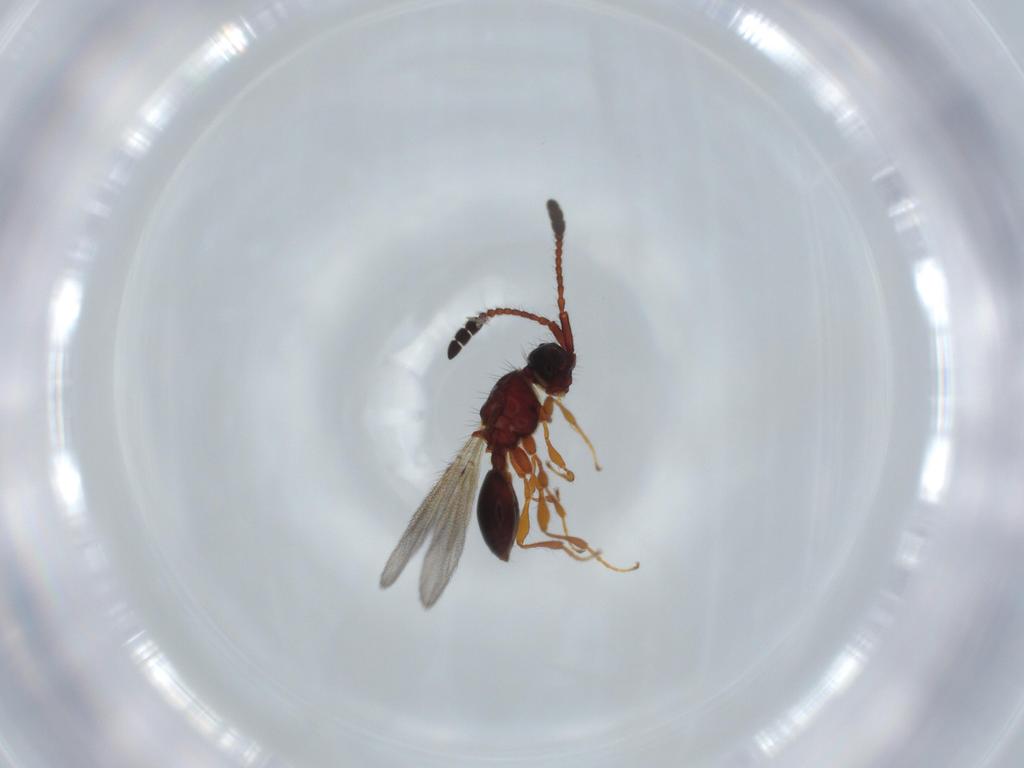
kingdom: Animalia
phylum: Arthropoda
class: Insecta
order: Hymenoptera
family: Diapriidae
